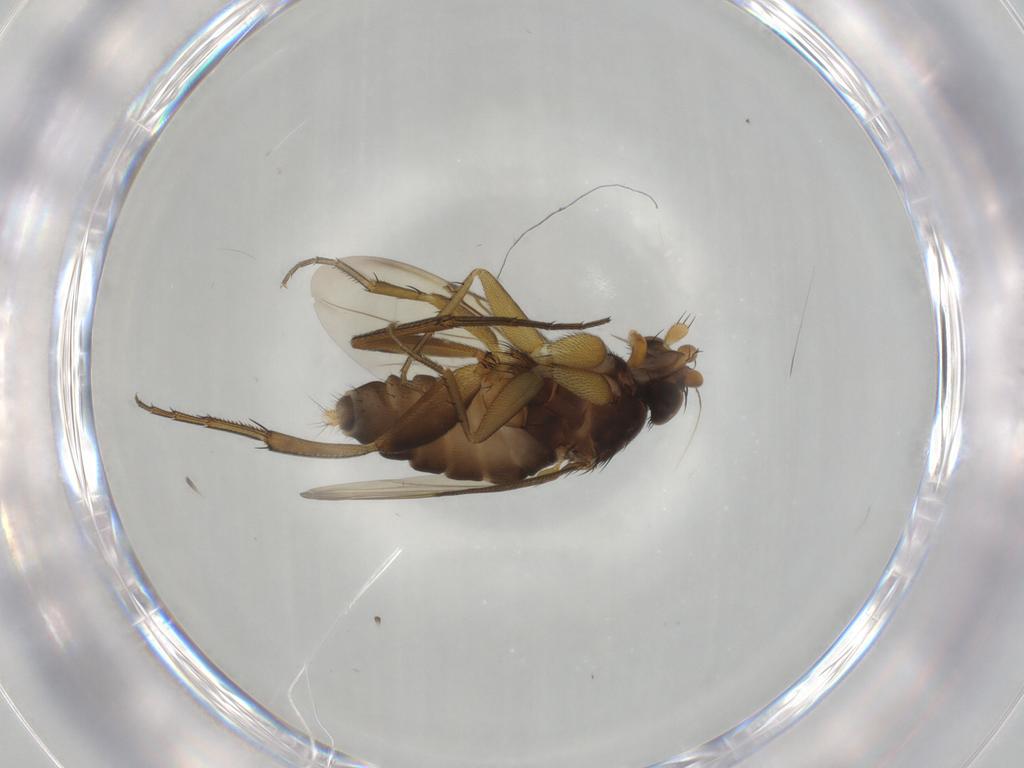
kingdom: Animalia
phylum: Arthropoda
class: Insecta
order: Diptera
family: Phoridae
